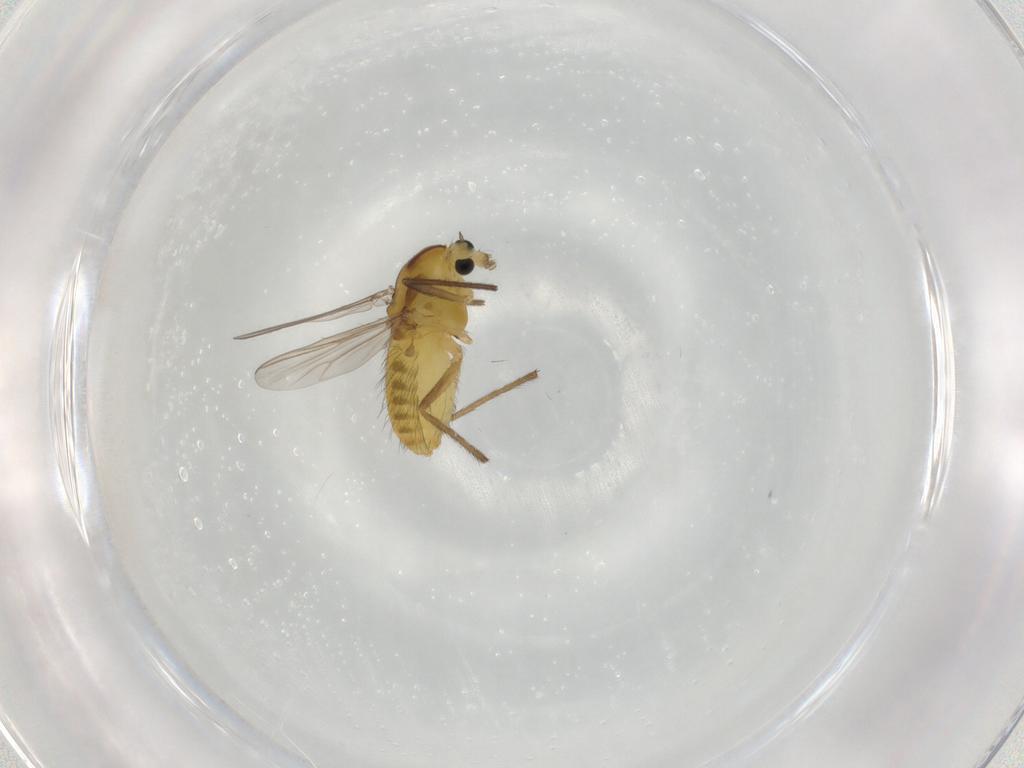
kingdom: Animalia
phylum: Arthropoda
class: Insecta
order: Diptera
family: Chironomidae
